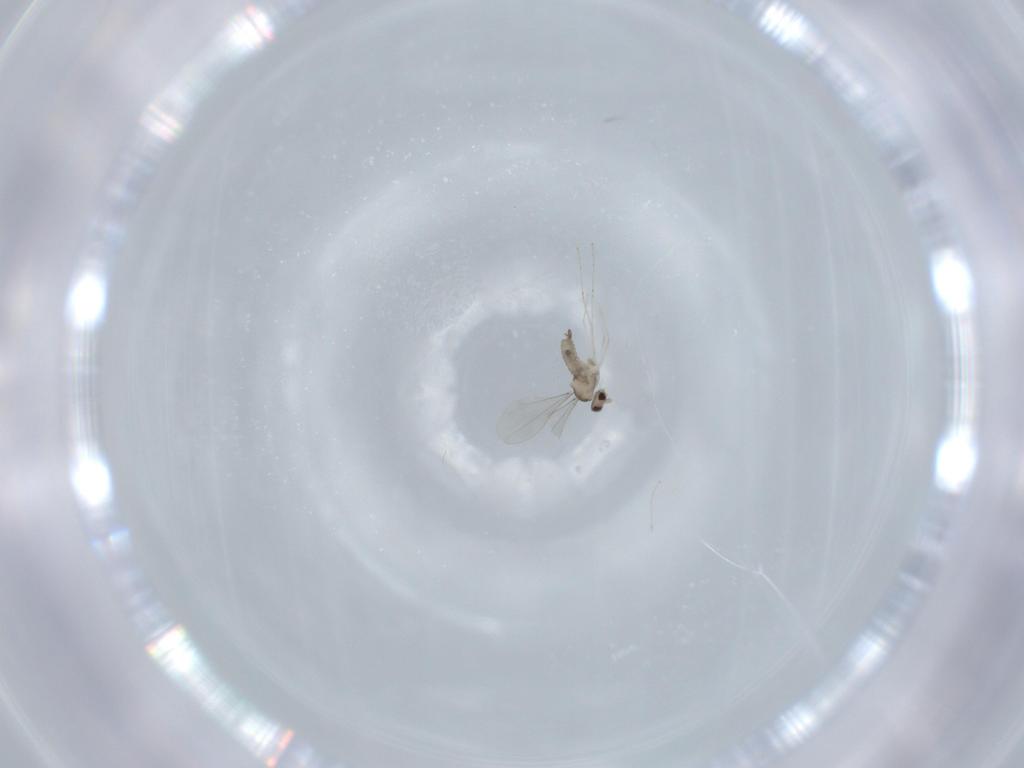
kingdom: Animalia
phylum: Arthropoda
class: Insecta
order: Diptera
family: Cecidomyiidae
